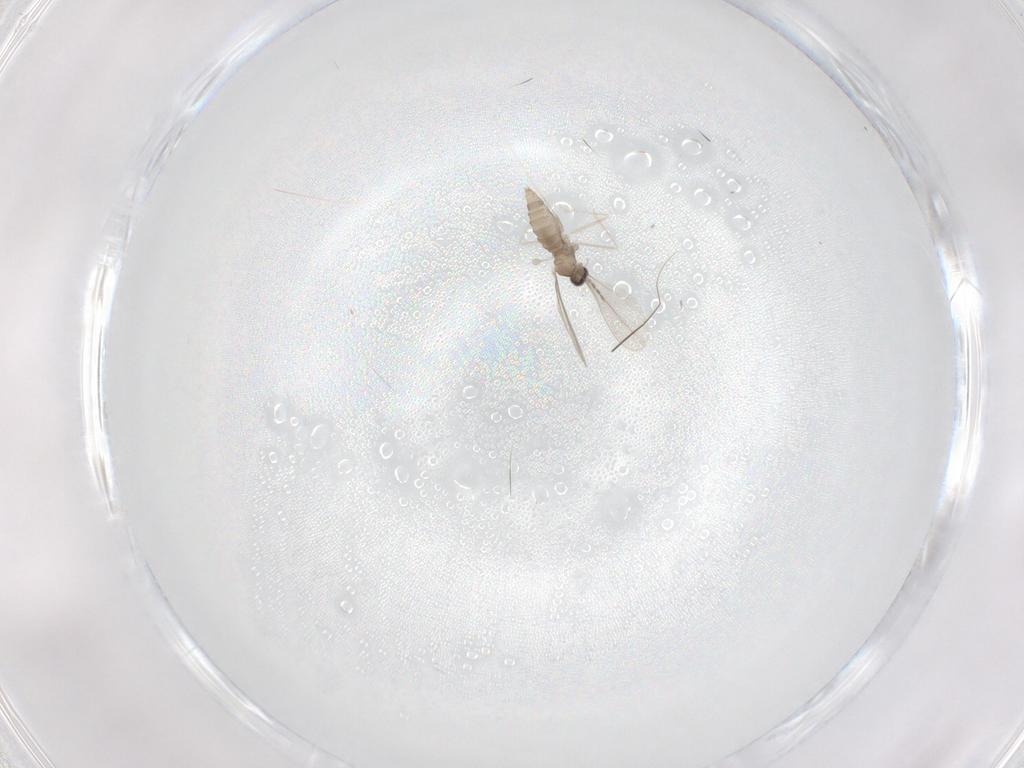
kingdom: Animalia
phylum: Arthropoda
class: Insecta
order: Diptera
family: Cecidomyiidae
